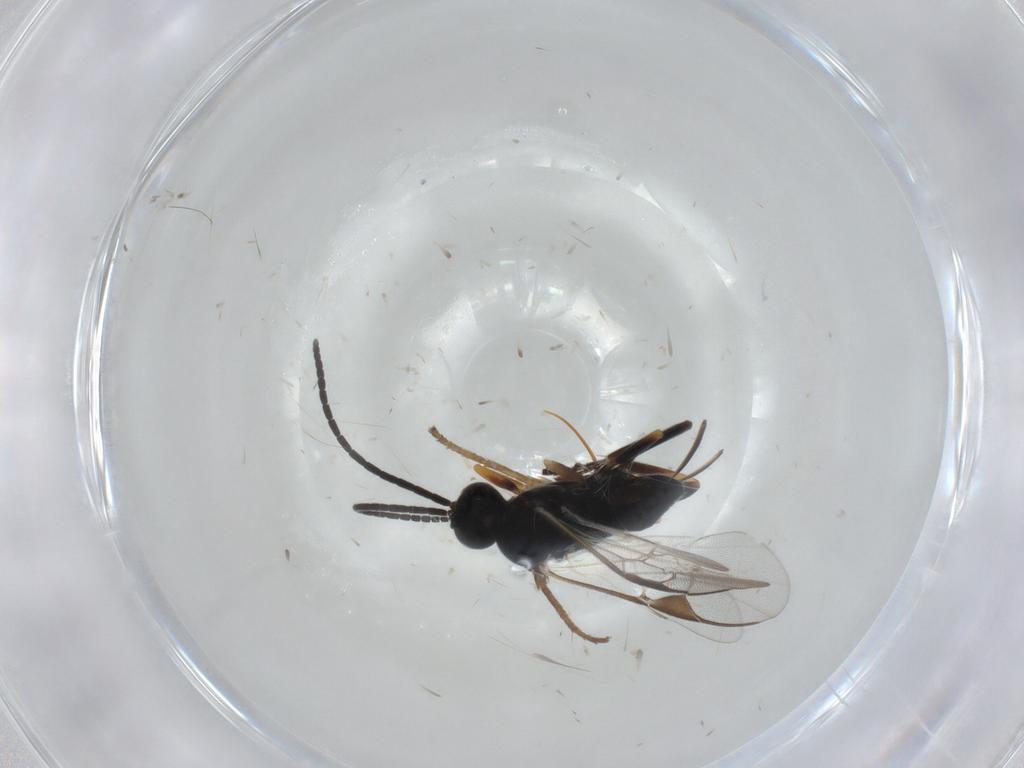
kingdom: Animalia
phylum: Arthropoda
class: Insecta
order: Hymenoptera
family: Braconidae
